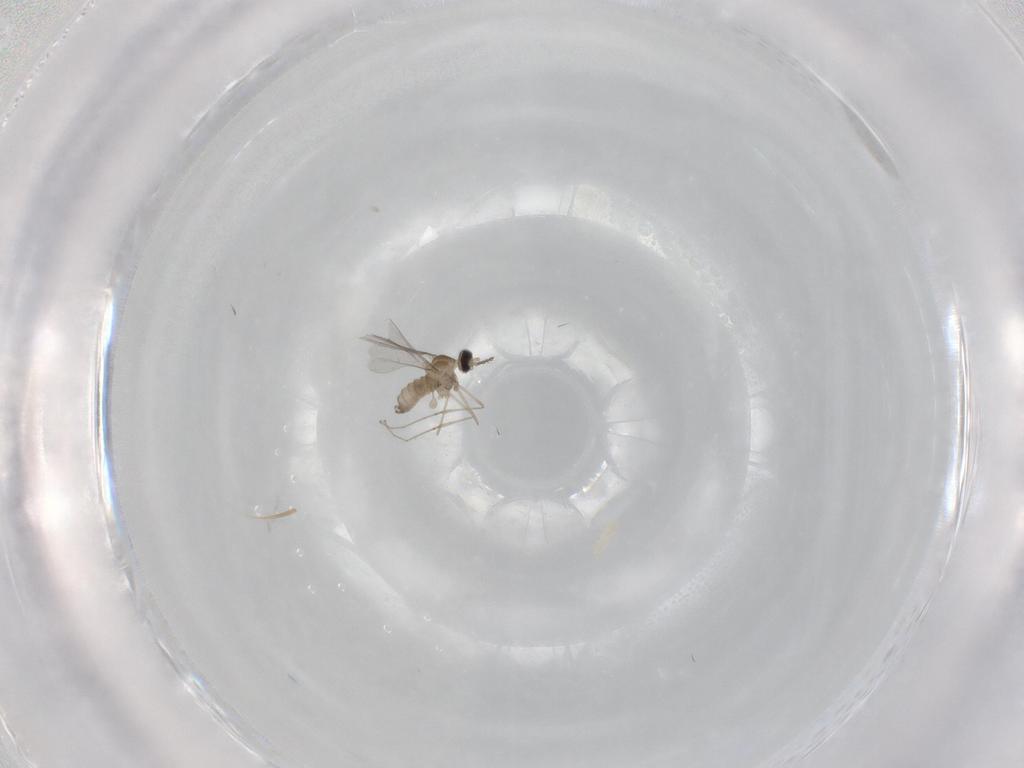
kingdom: Animalia
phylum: Arthropoda
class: Insecta
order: Diptera
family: Cecidomyiidae
